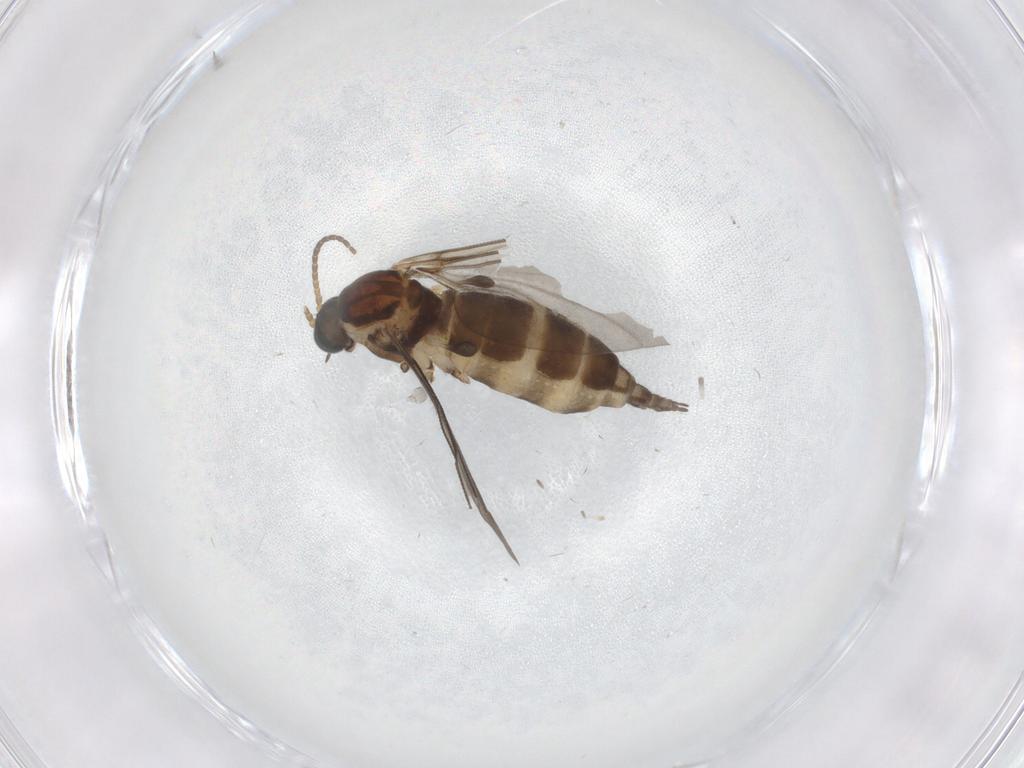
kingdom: Animalia
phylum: Arthropoda
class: Insecta
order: Diptera
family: Sciaridae
